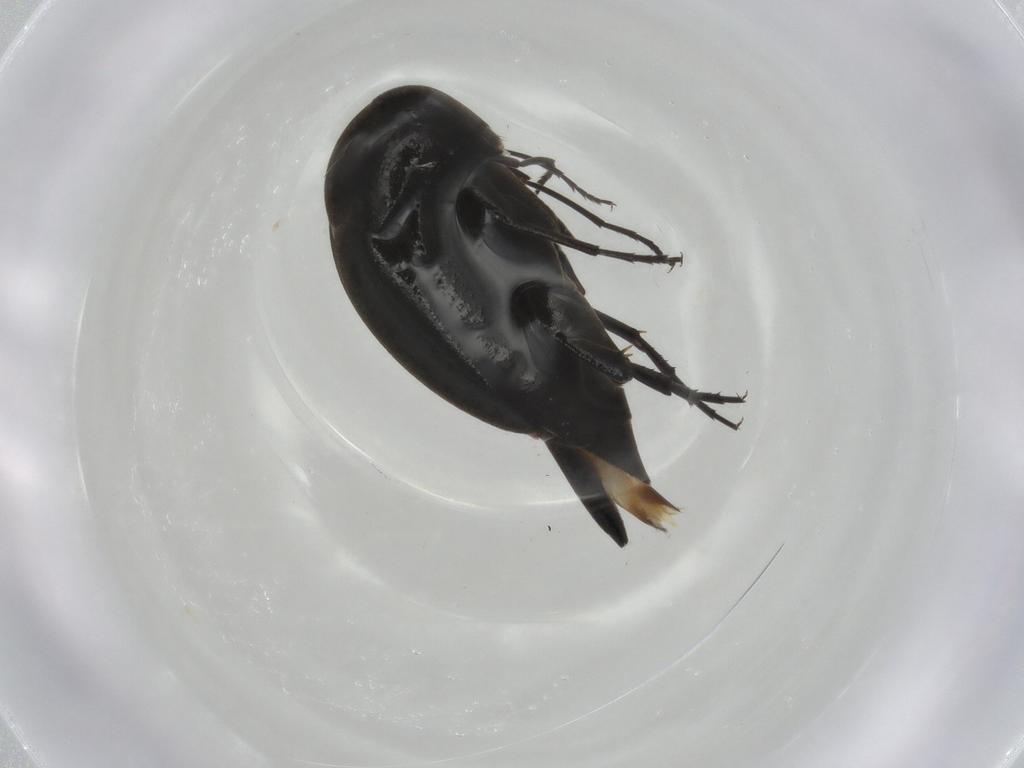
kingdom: Animalia
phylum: Arthropoda
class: Insecta
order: Coleoptera
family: Mordellidae
